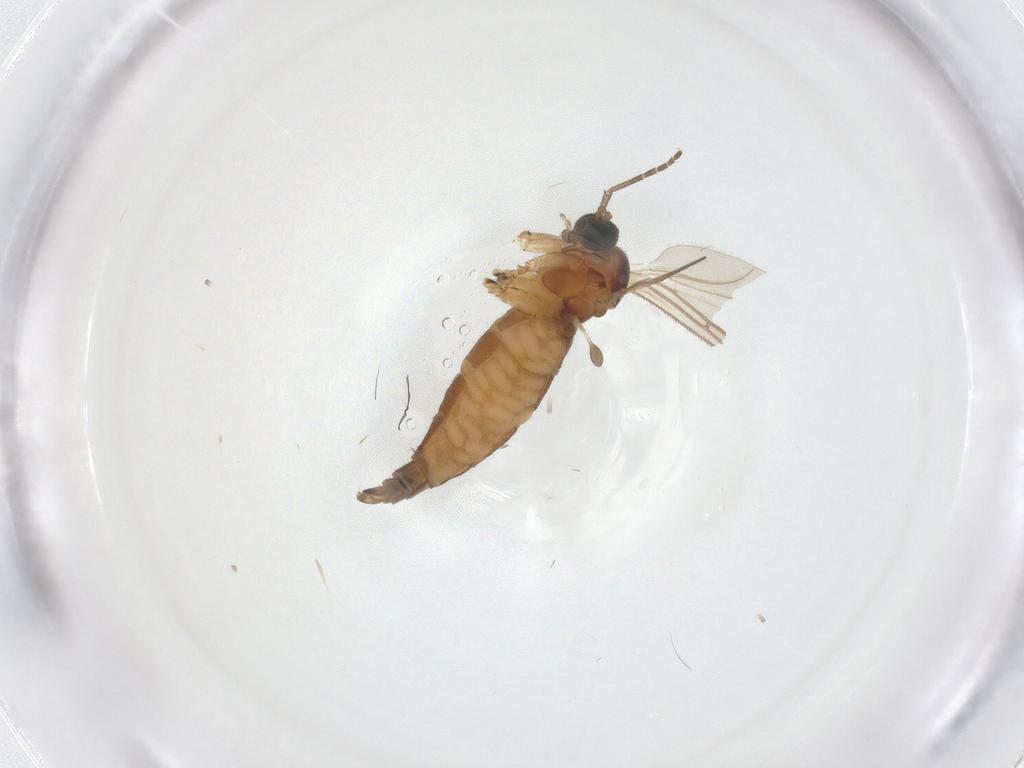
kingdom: Animalia
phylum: Arthropoda
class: Insecta
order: Diptera
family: Sciaridae
